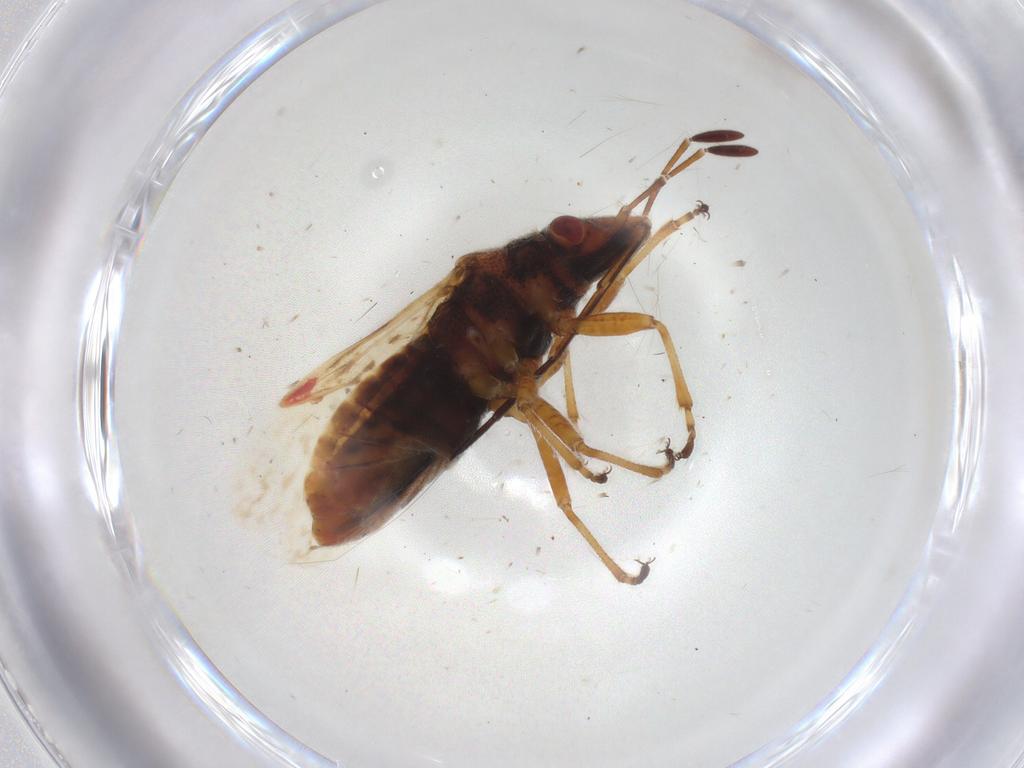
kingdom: Animalia
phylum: Arthropoda
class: Insecta
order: Hemiptera
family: Lygaeidae
